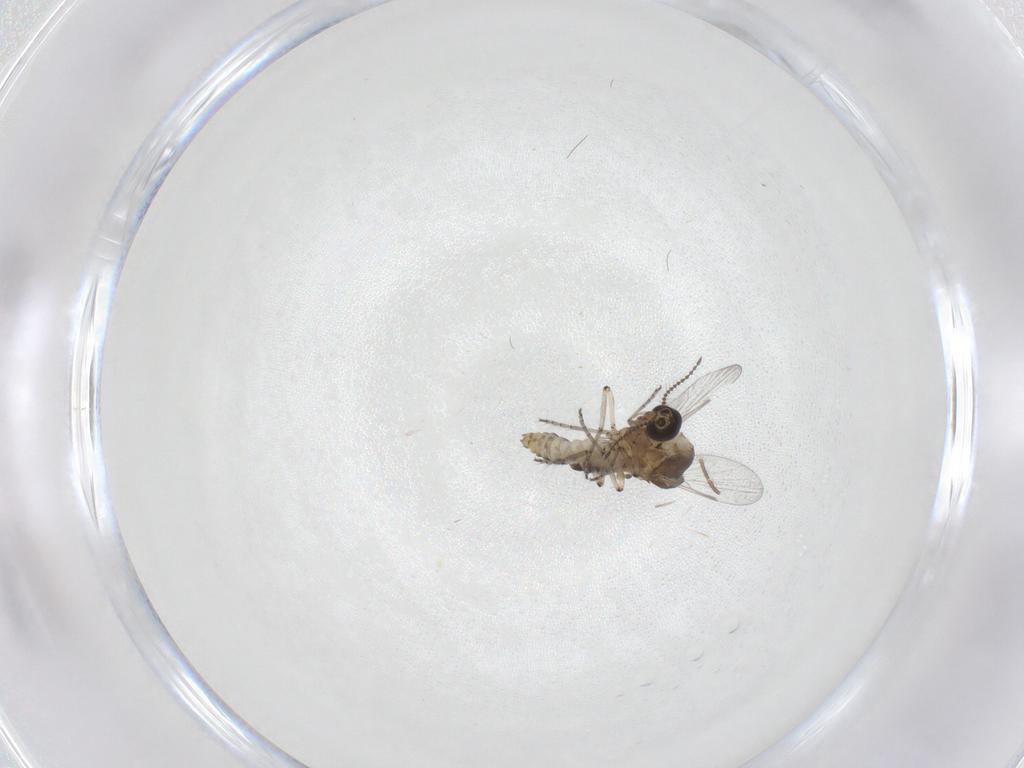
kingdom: Animalia
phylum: Arthropoda
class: Insecta
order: Diptera
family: Ceratopogonidae
